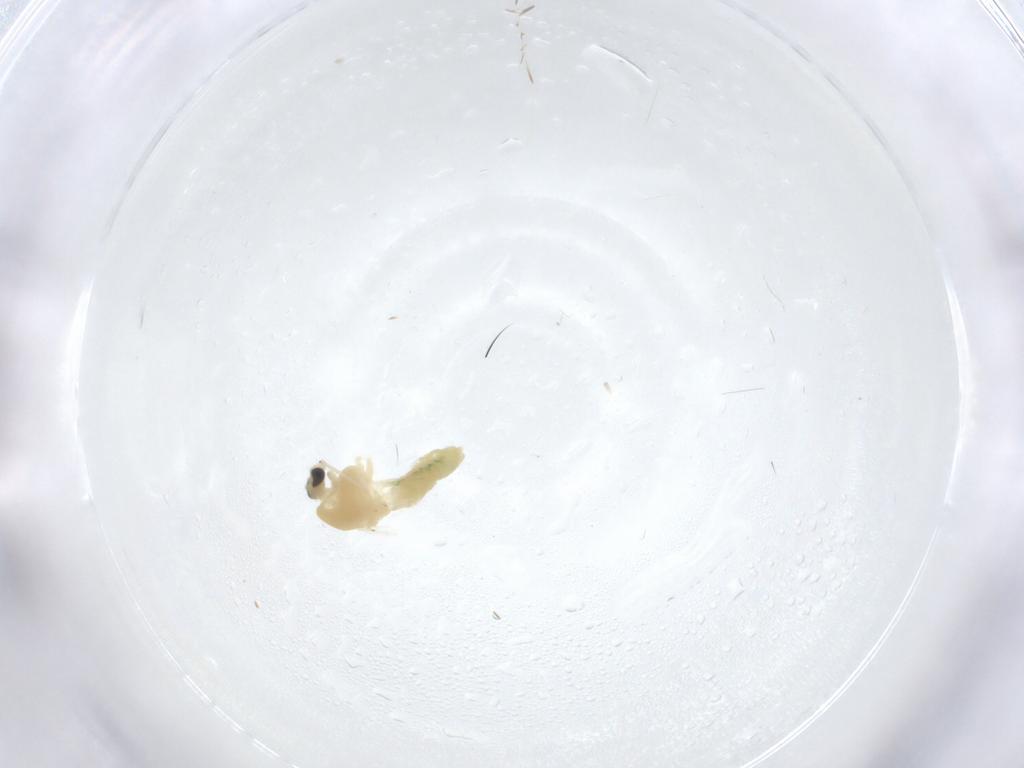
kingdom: Animalia
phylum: Arthropoda
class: Insecta
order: Diptera
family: Chironomidae
